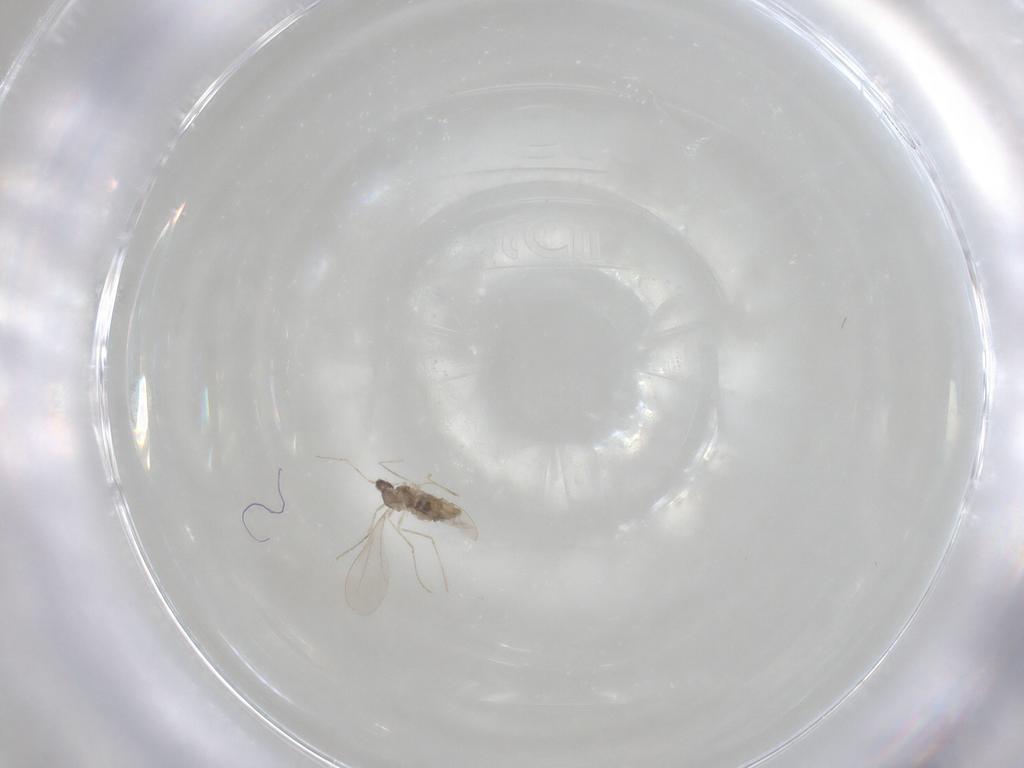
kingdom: Animalia
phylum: Arthropoda
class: Insecta
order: Diptera
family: Cecidomyiidae
